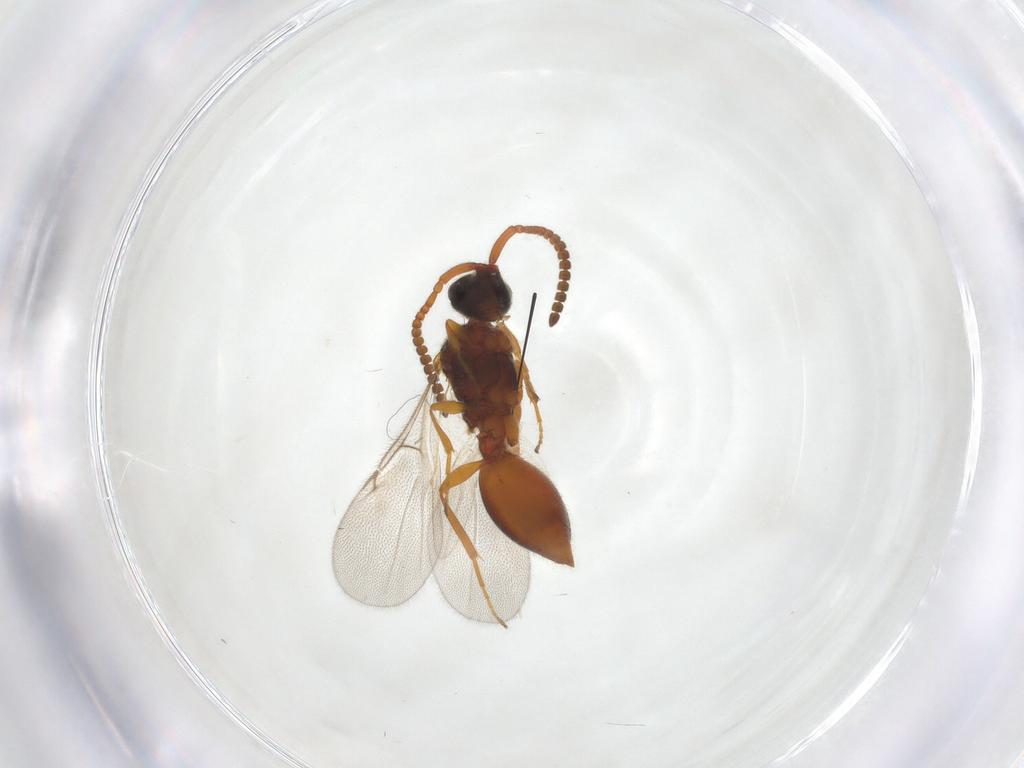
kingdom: Animalia
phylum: Arthropoda
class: Insecta
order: Hymenoptera
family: Diapriidae
